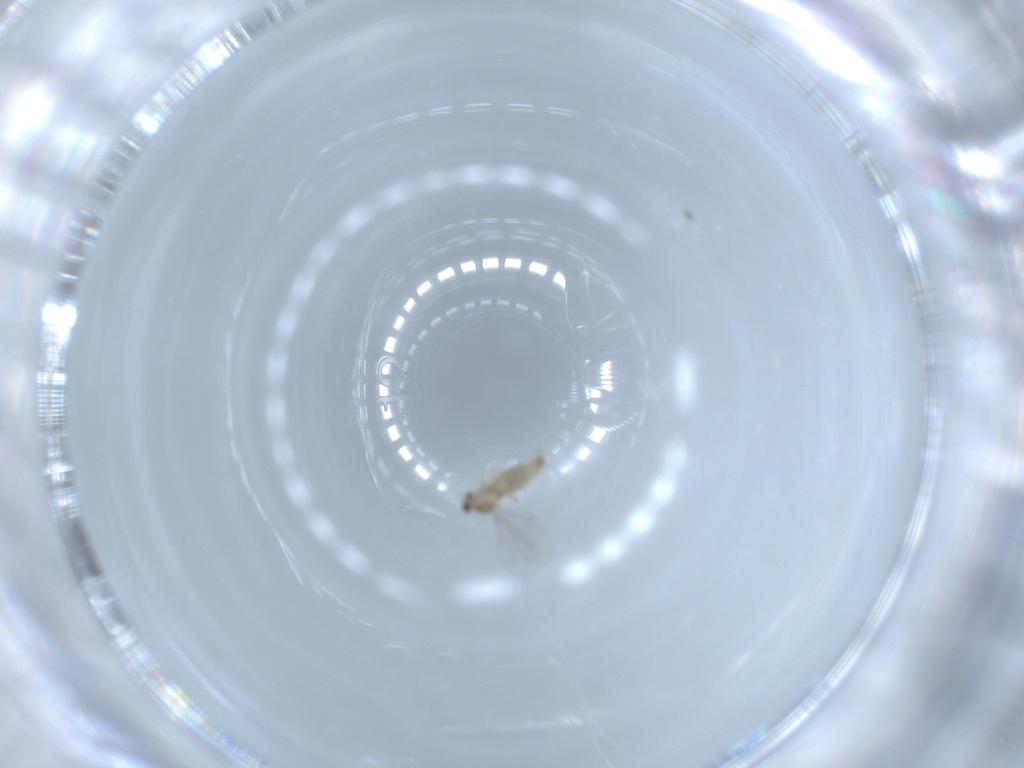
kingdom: Animalia
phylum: Arthropoda
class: Insecta
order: Diptera
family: Cecidomyiidae
